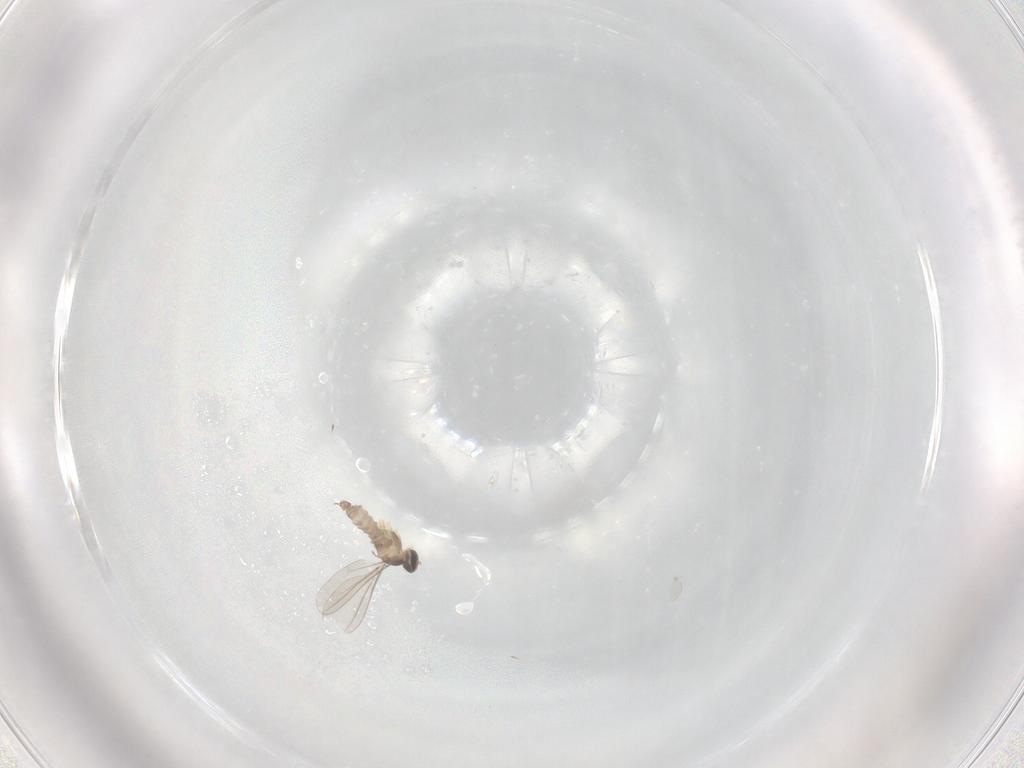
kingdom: Animalia
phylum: Arthropoda
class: Insecta
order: Diptera
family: Cecidomyiidae
